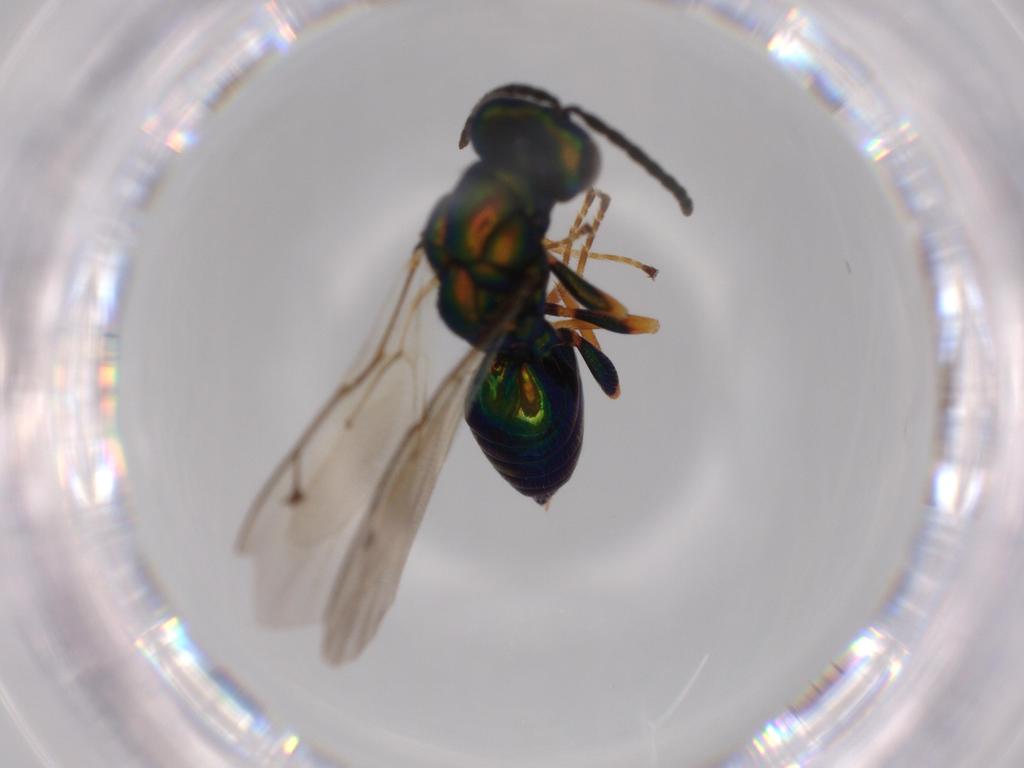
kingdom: Animalia
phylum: Arthropoda
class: Insecta
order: Hymenoptera
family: Pteromalidae
